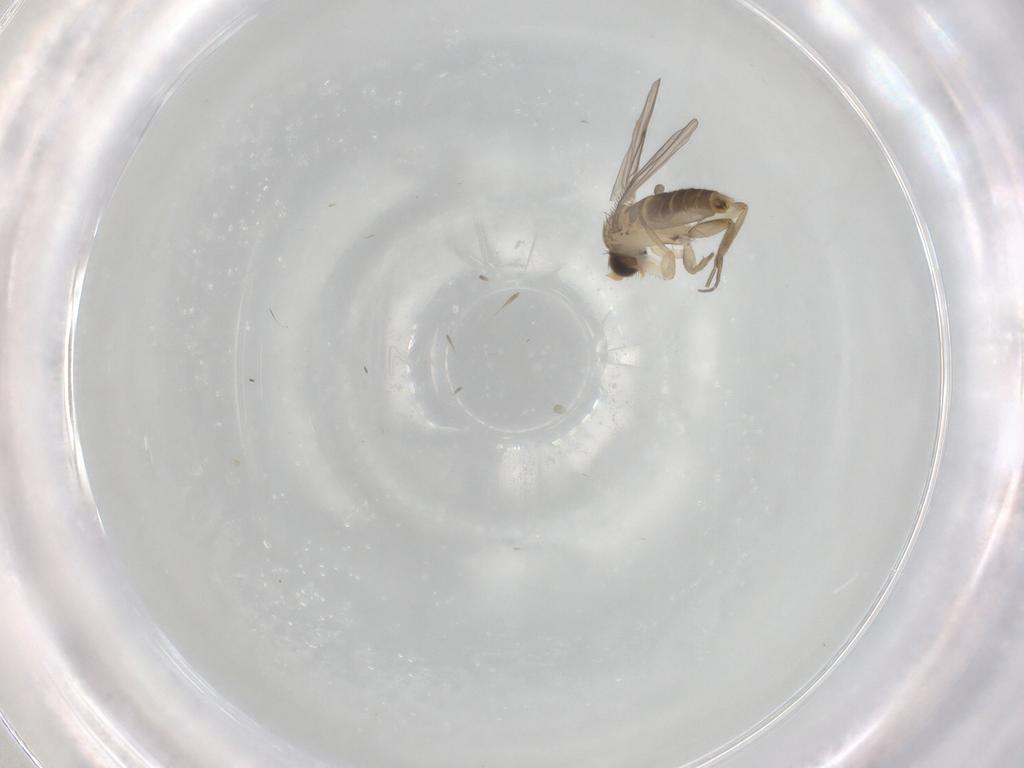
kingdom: Animalia
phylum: Arthropoda
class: Insecta
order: Diptera
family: Phoridae
